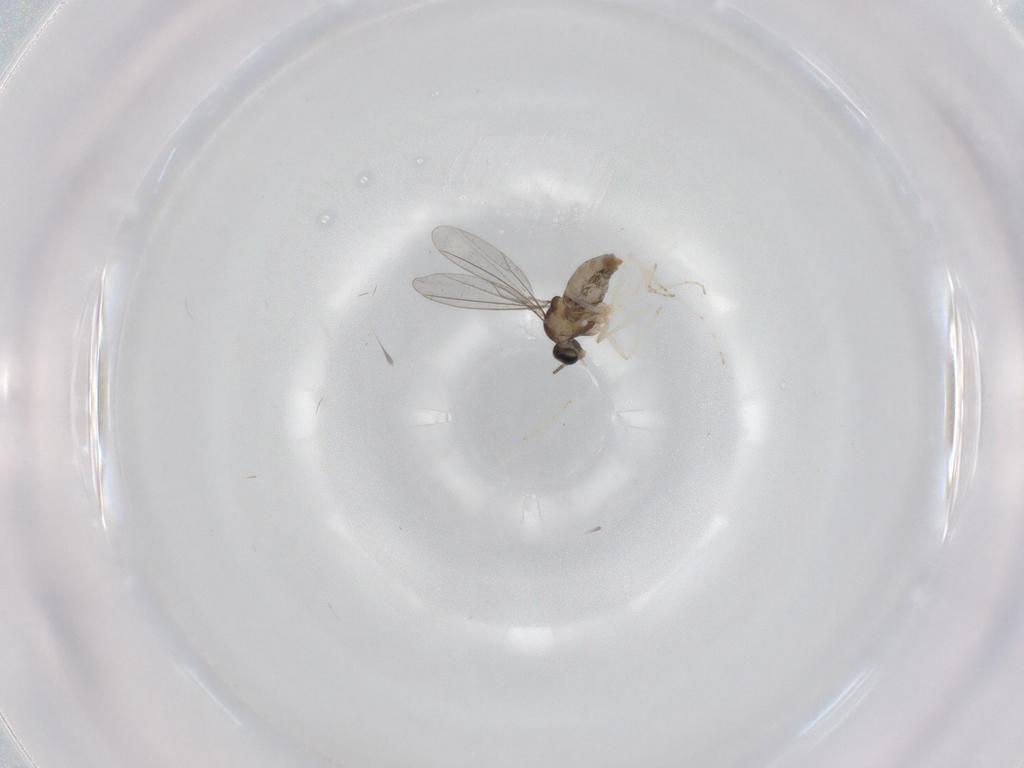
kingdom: Animalia
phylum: Arthropoda
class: Insecta
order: Diptera
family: Cecidomyiidae
